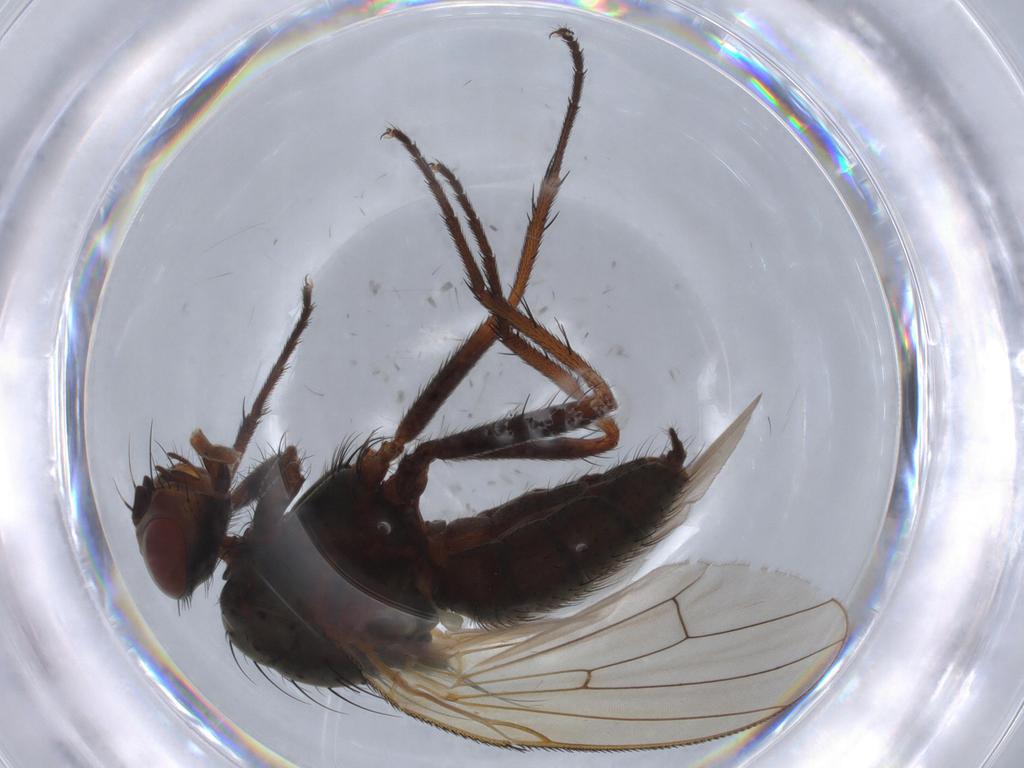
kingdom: Animalia
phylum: Arthropoda
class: Insecta
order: Diptera
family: Anthomyiidae
